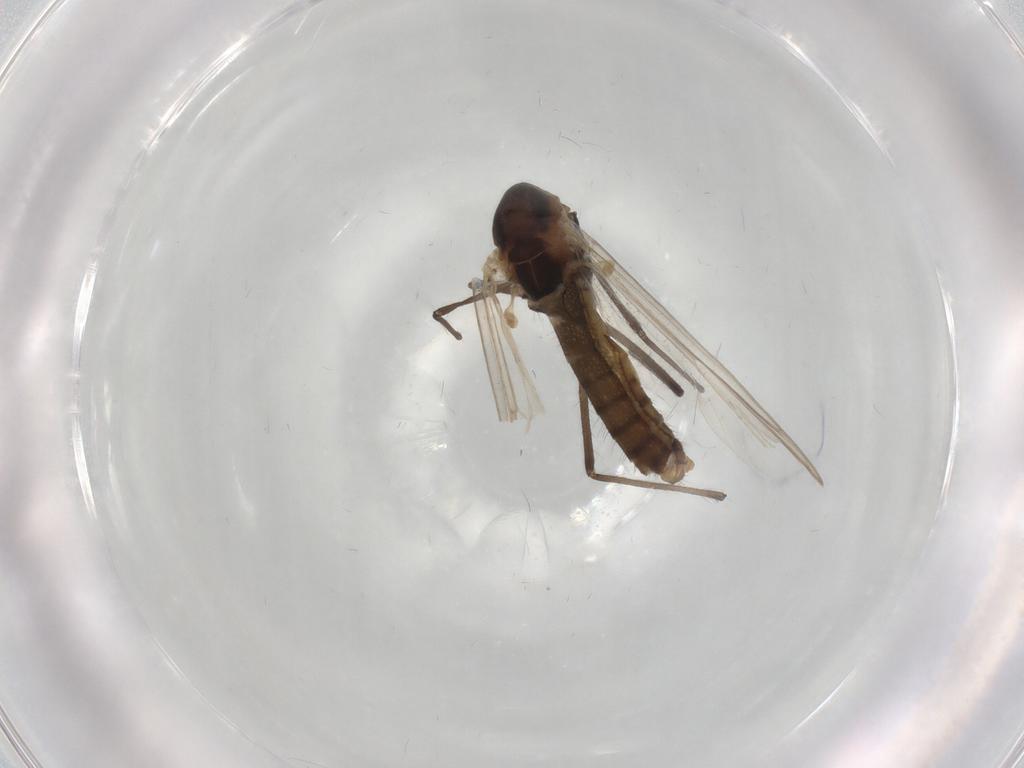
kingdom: Animalia
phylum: Arthropoda
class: Insecta
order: Diptera
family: Chironomidae
